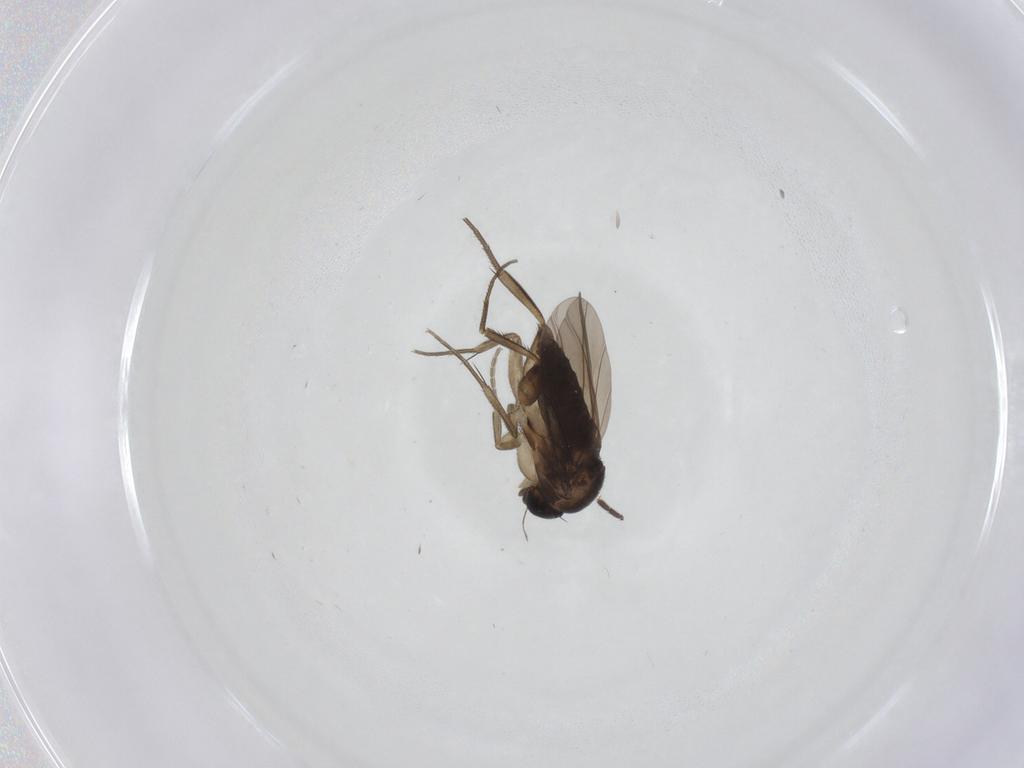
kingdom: Animalia
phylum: Arthropoda
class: Insecta
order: Diptera
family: Phoridae
